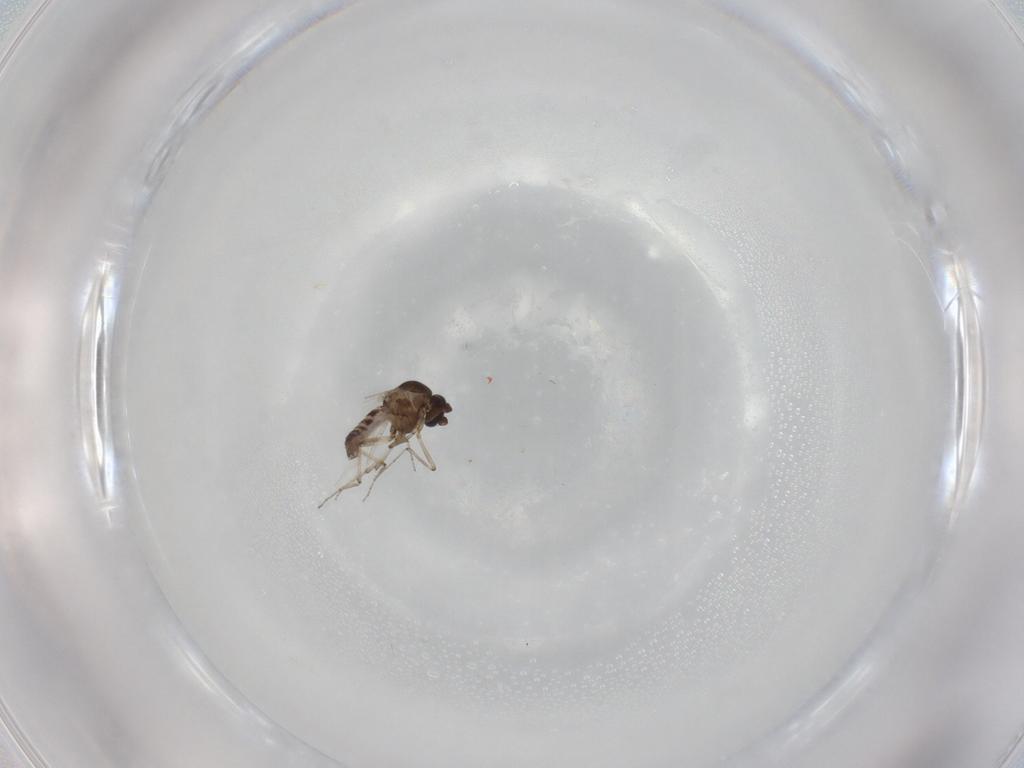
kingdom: Animalia
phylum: Arthropoda
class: Insecta
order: Diptera
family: Ceratopogonidae
